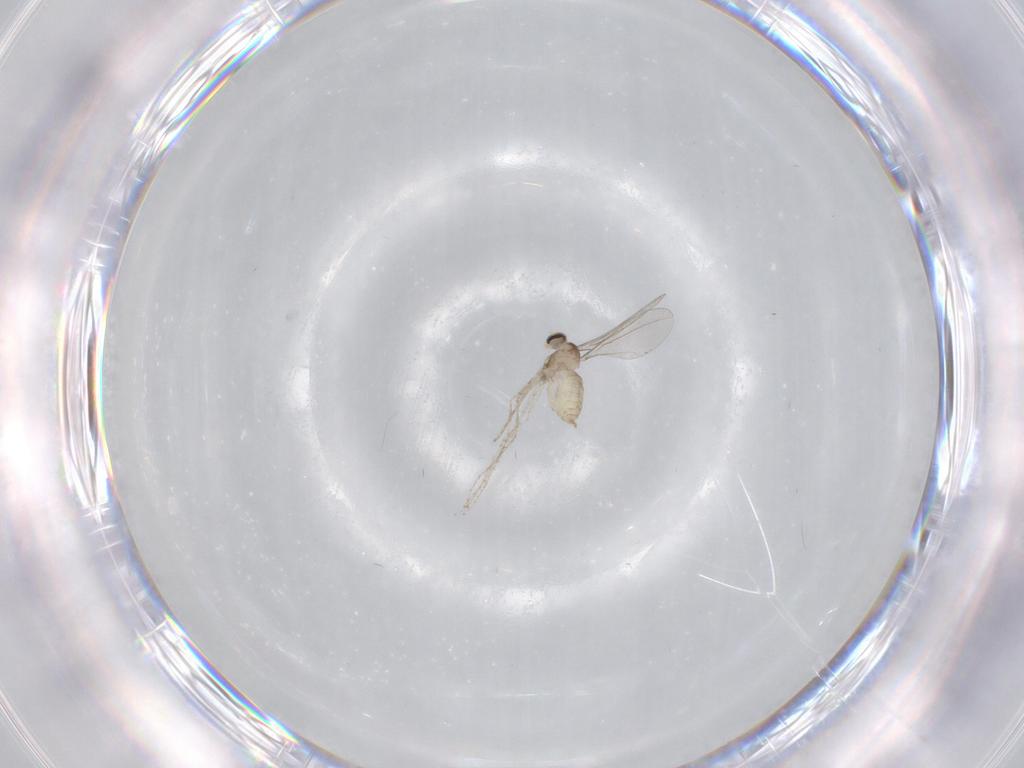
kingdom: Animalia
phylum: Arthropoda
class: Insecta
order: Diptera
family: Cecidomyiidae
